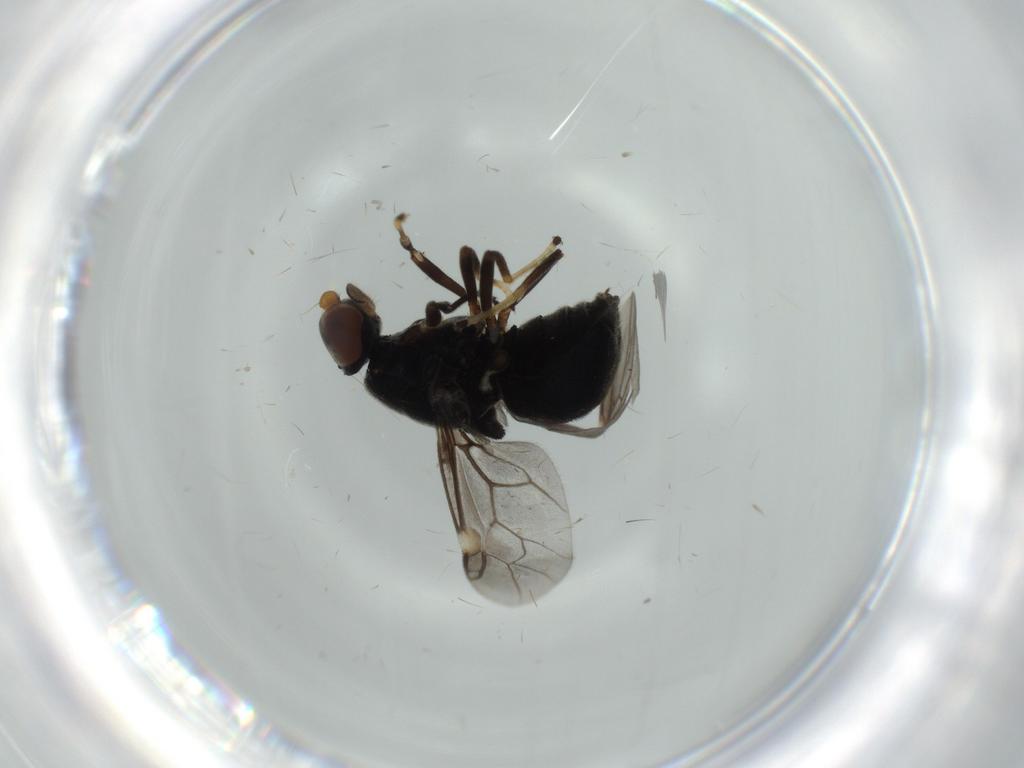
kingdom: Animalia
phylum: Arthropoda
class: Insecta
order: Diptera
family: Stratiomyidae
